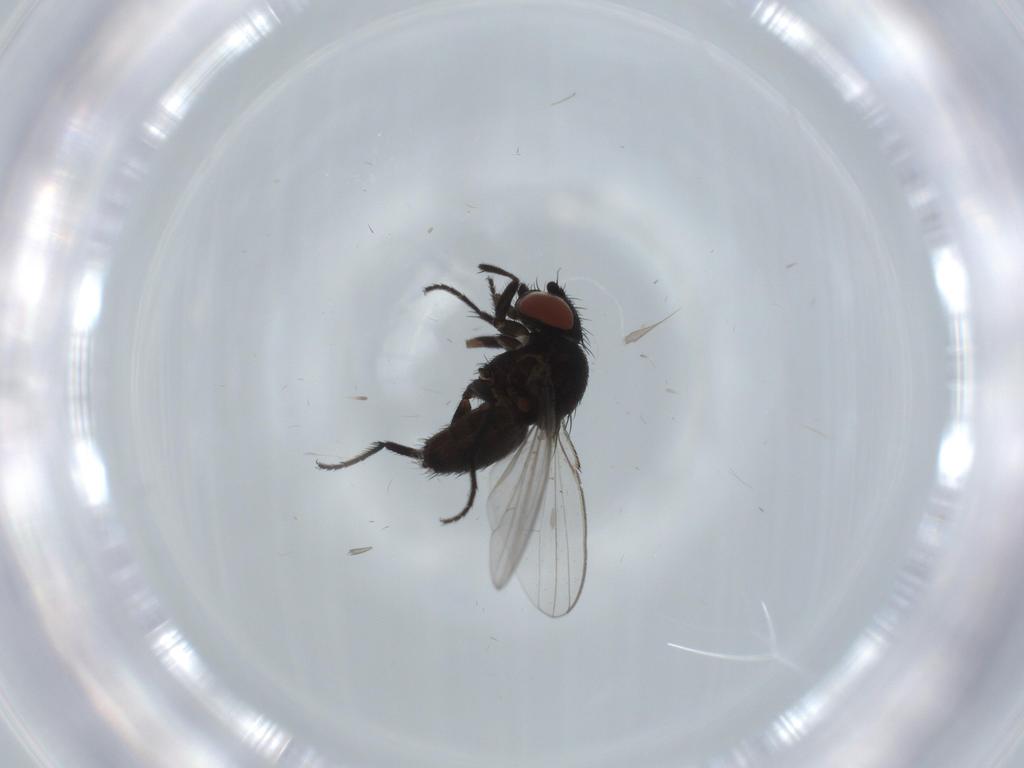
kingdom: Animalia
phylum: Arthropoda
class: Insecta
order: Diptera
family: Milichiidae
